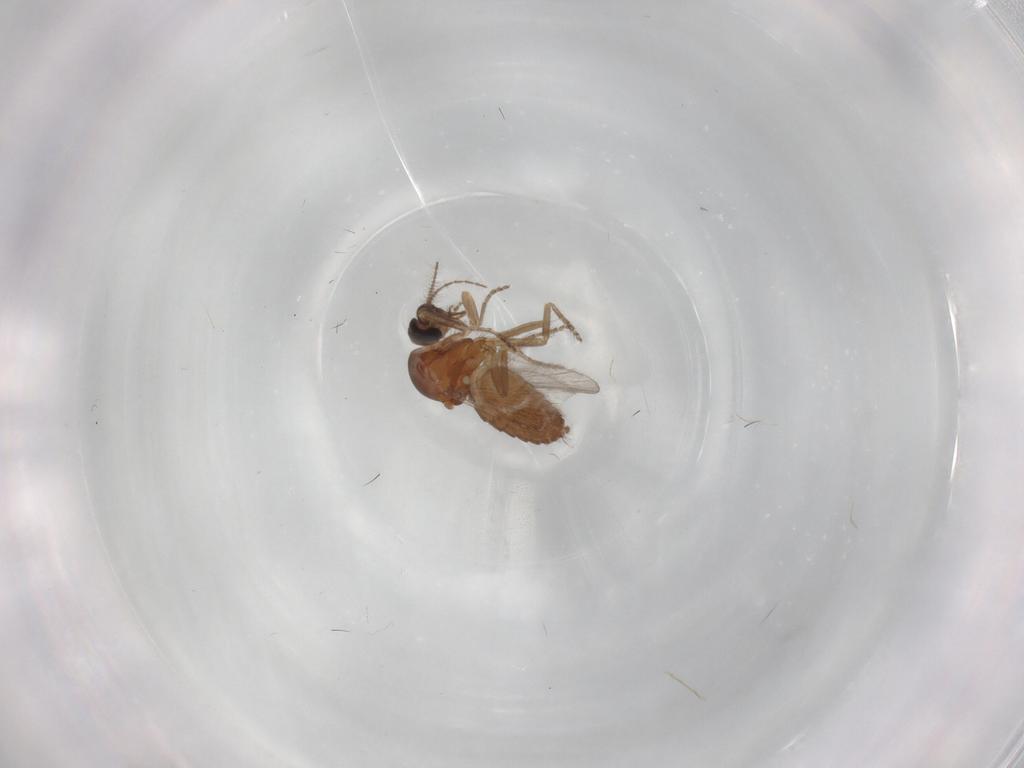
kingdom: Animalia
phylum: Arthropoda
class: Insecta
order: Diptera
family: Ceratopogonidae
